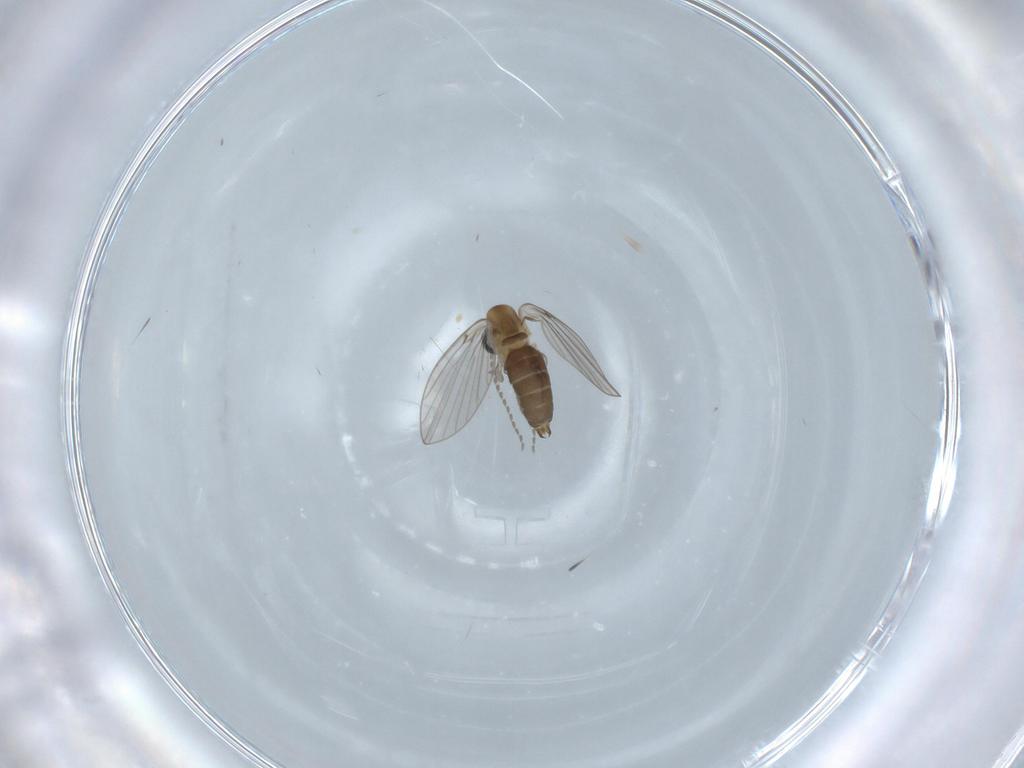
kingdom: Animalia
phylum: Arthropoda
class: Insecta
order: Diptera
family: Psychodidae
